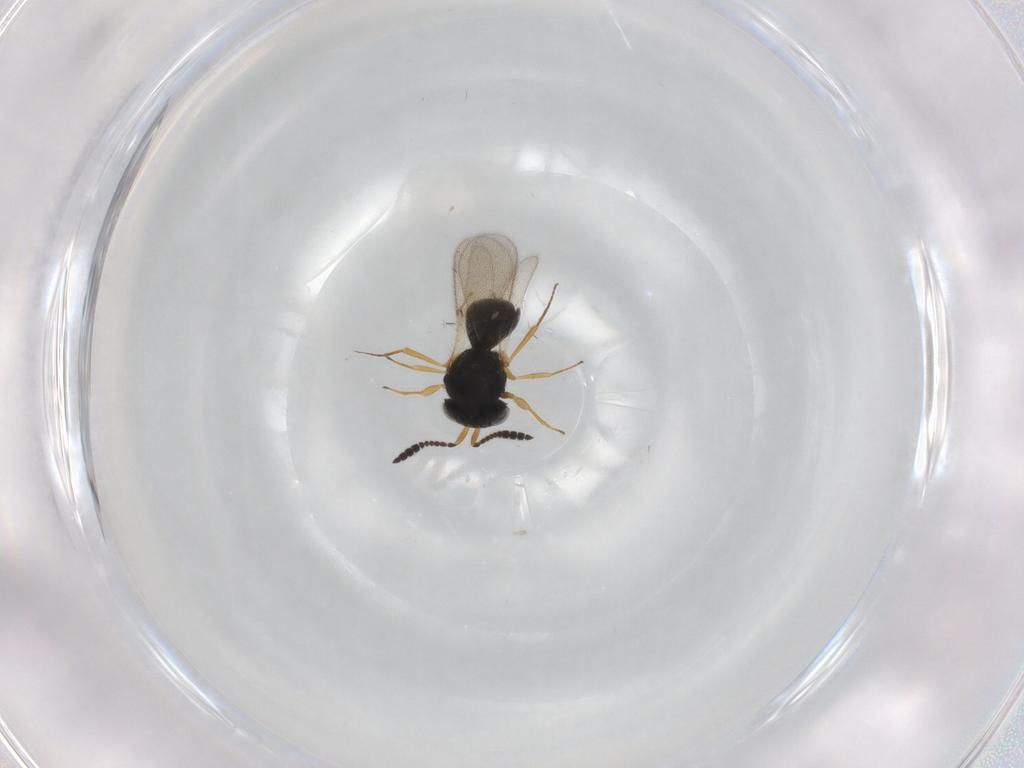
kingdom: Animalia
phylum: Arthropoda
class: Insecta
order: Hymenoptera
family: Scelionidae
